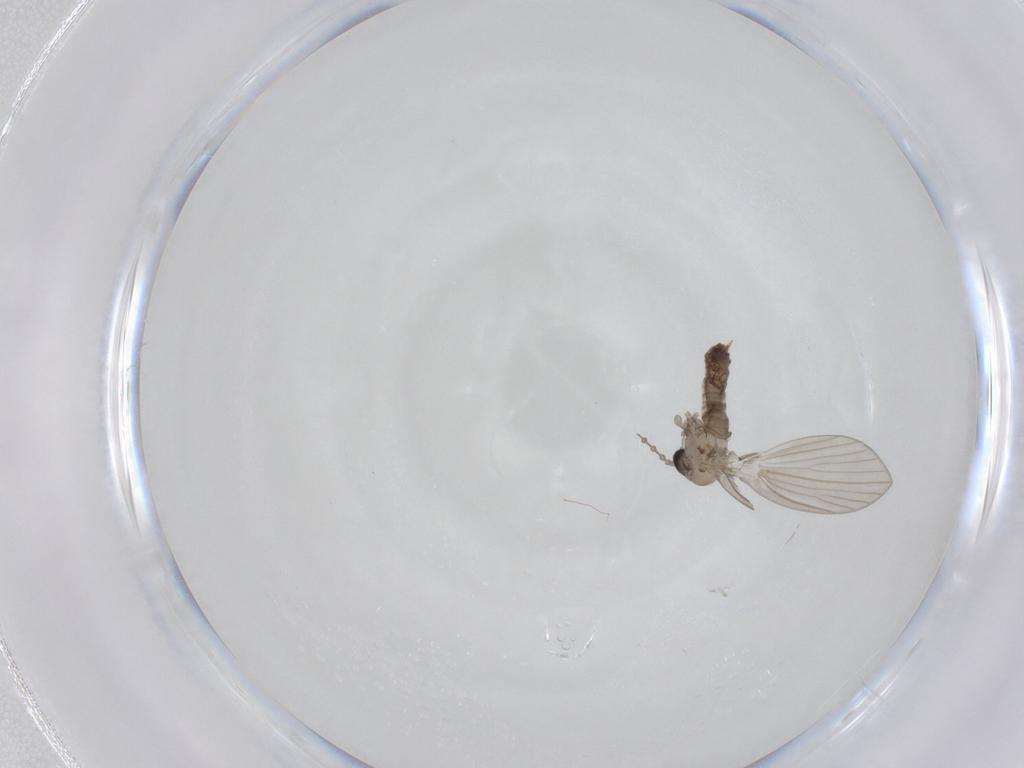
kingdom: Animalia
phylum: Arthropoda
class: Insecta
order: Diptera
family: Psychodidae
